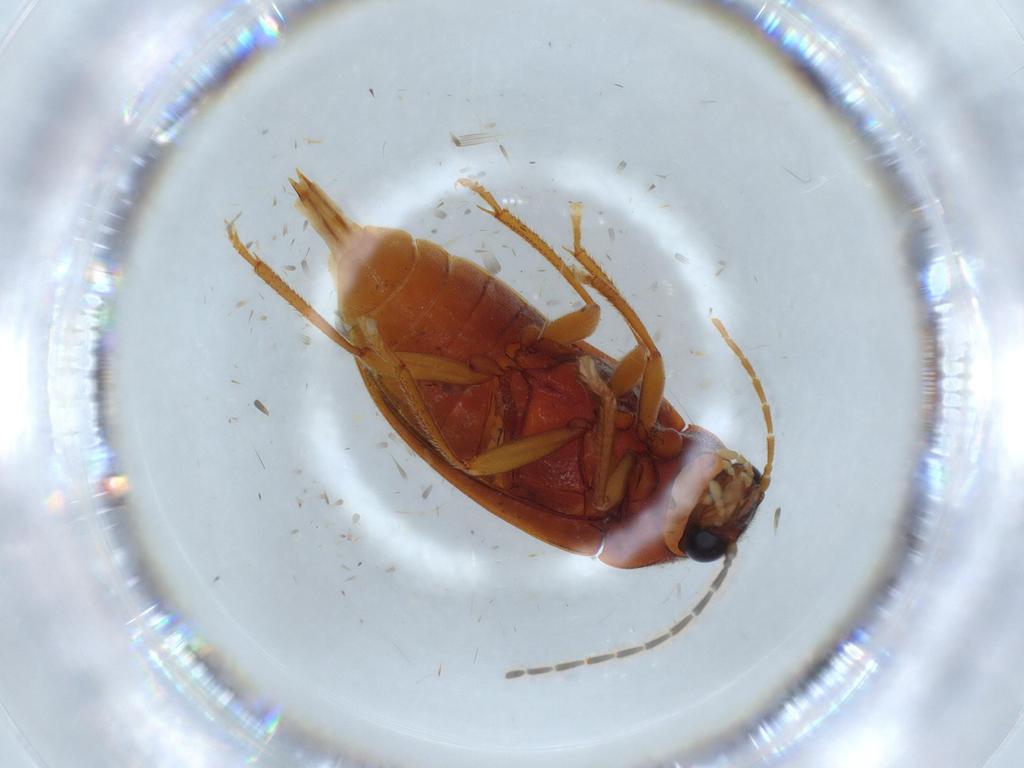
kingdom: Animalia
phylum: Arthropoda
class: Insecta
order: Coleoptera
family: Ptilodactylidae
